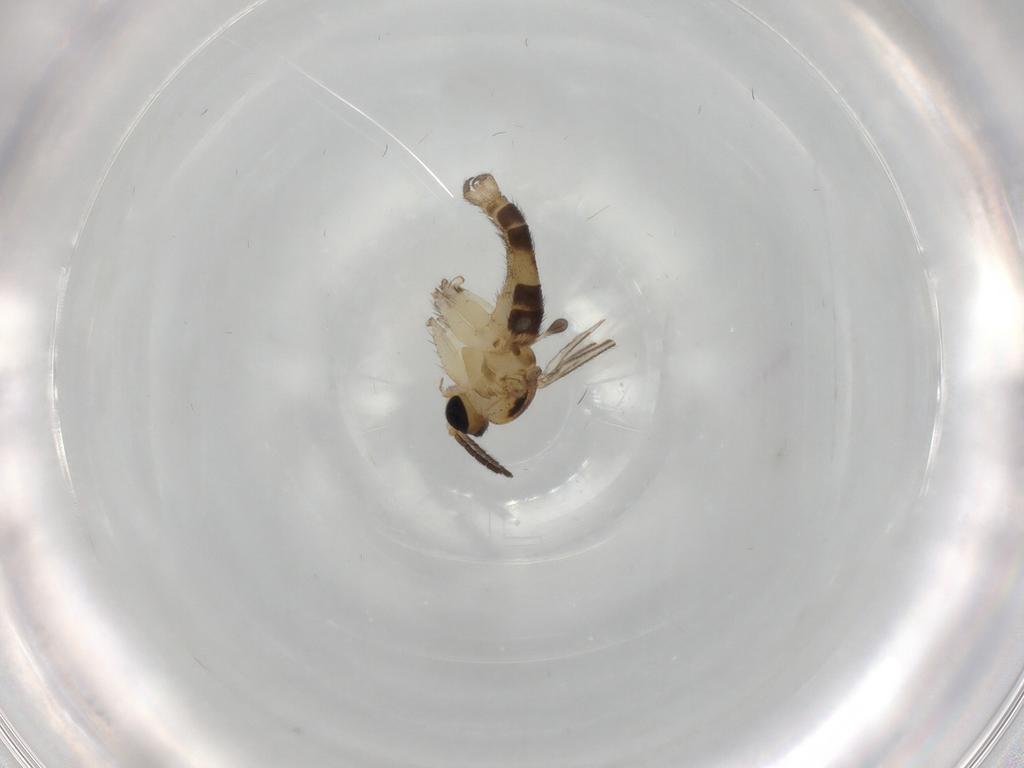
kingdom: Animalia
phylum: Arthropoda
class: Insecta
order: Diptera
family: Sciaridae
